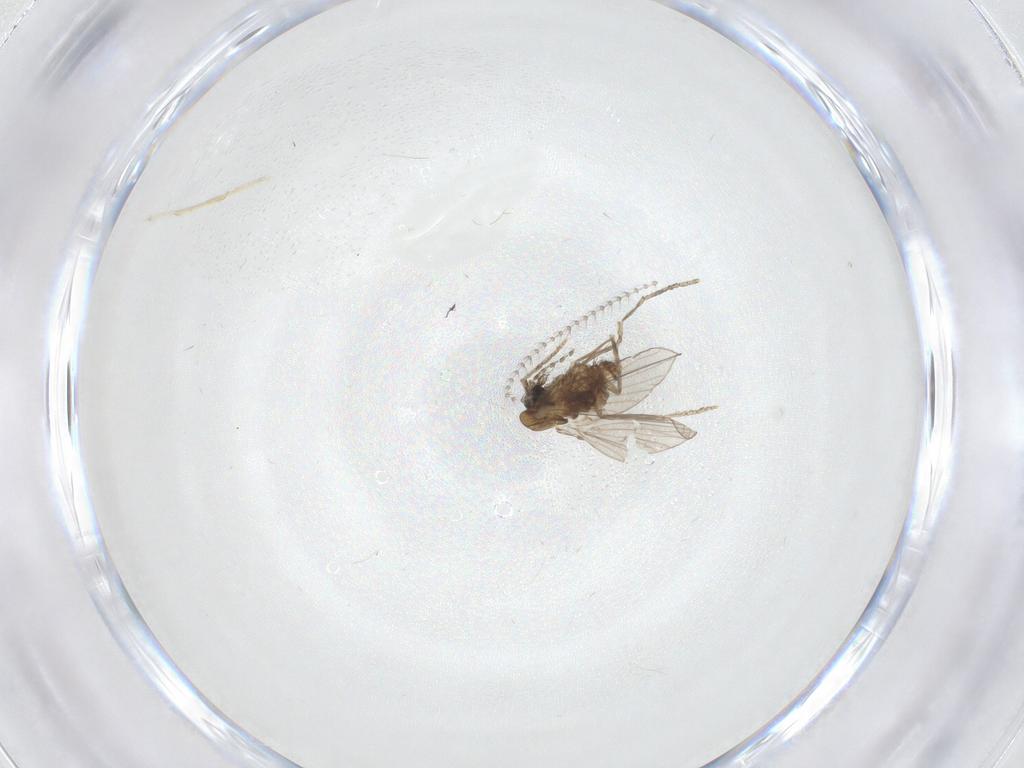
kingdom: Animalia
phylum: Arthropoda
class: Insecta
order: Diptera
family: Psychodidae
